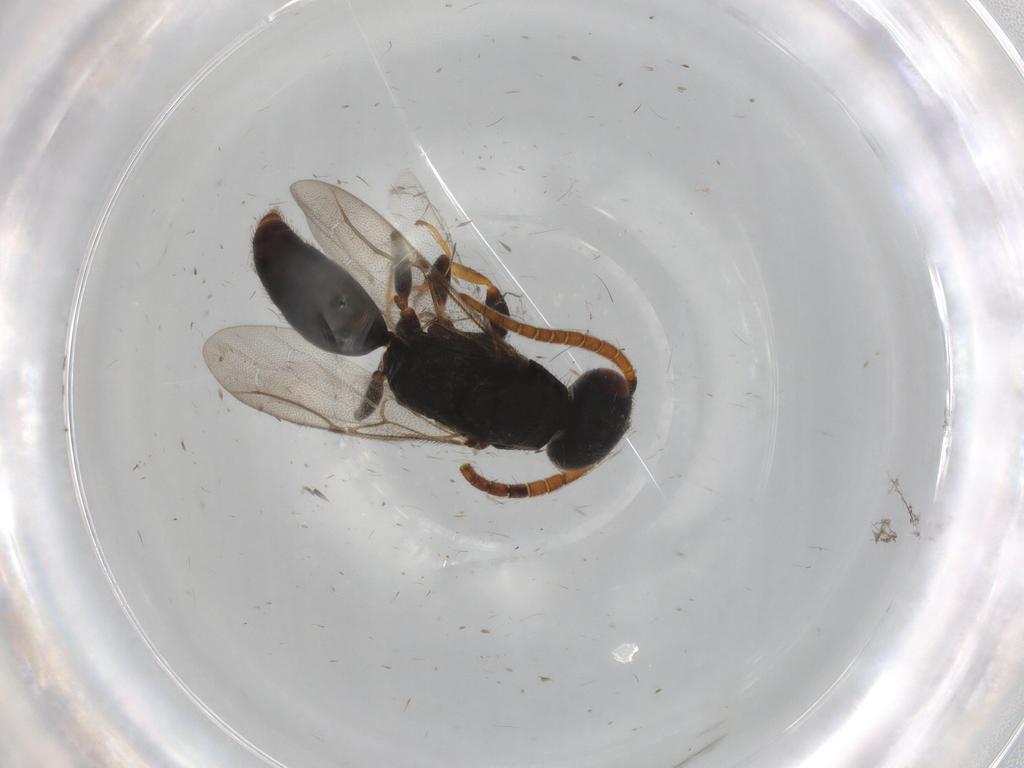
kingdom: Animalia
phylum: Arthropoda
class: Insecta
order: Hymenoptera
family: Bethylidae
